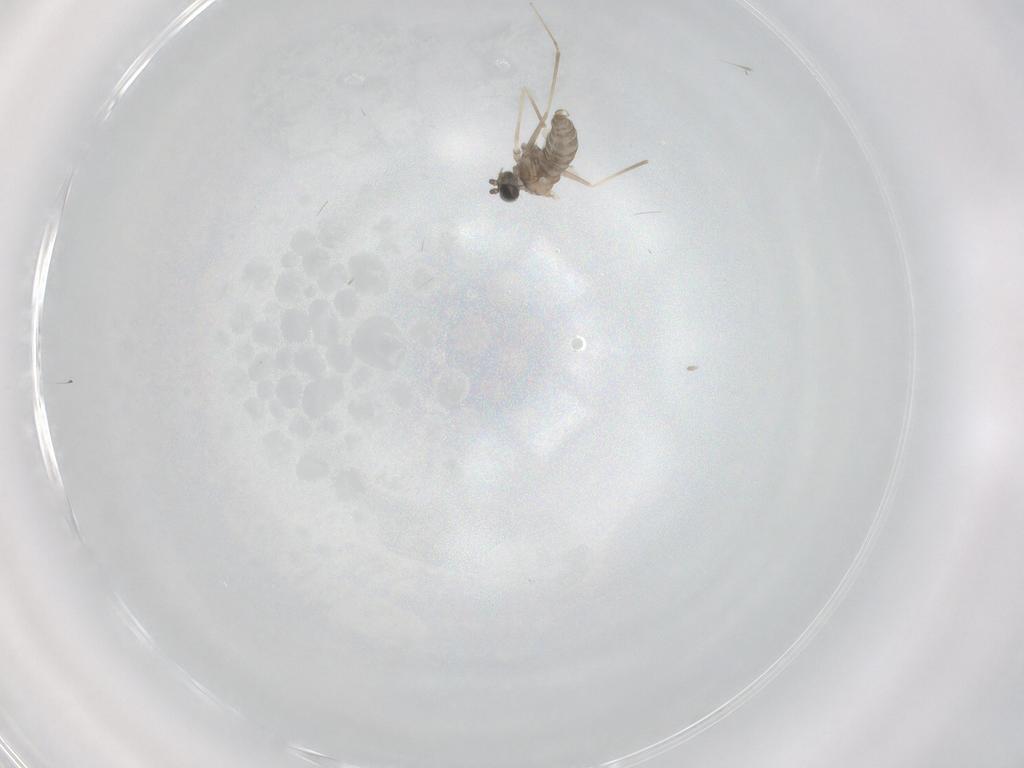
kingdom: Animalia
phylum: Arthropoda
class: Insecta
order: Diptera
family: Cecidomyiidae
